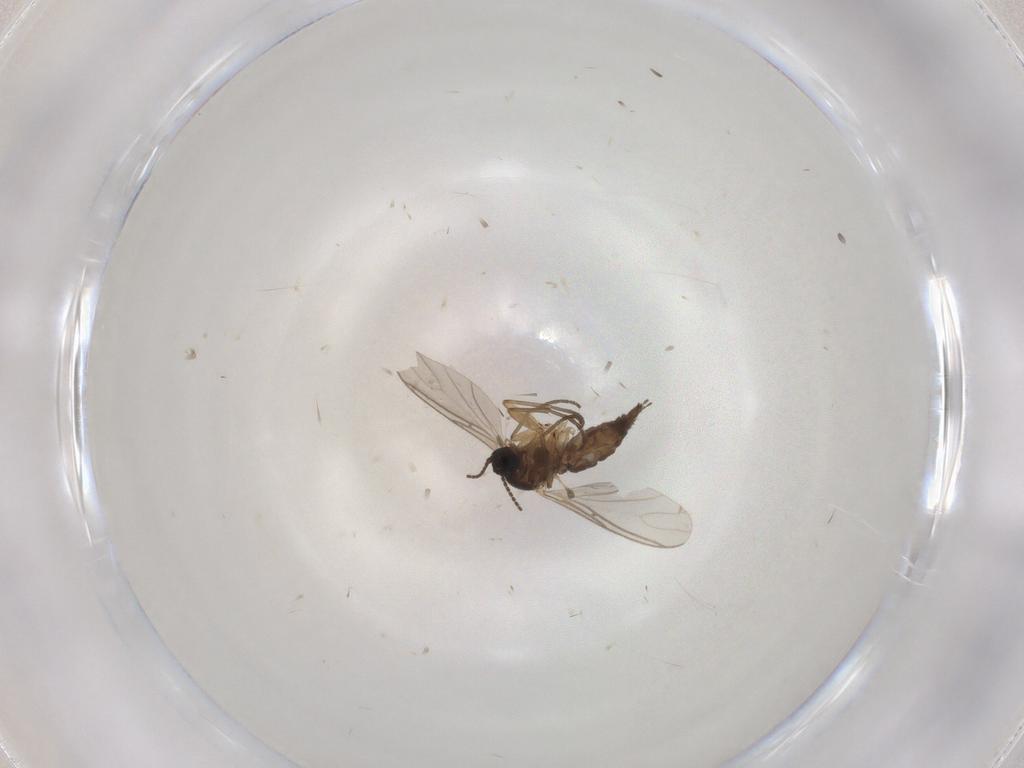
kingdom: Animalia
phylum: Arthropoda
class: Insecta
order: Diptera
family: Sciaridae
